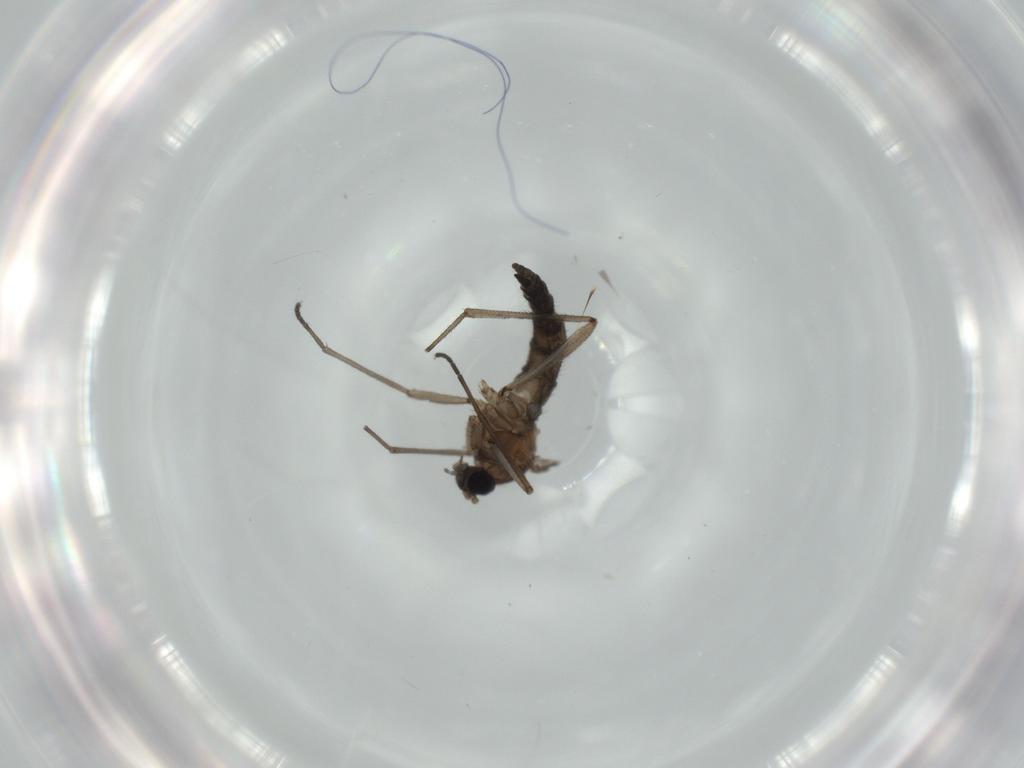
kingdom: Animalia
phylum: Arthropoda
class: Insecta
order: Diptera
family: Sciaridae
